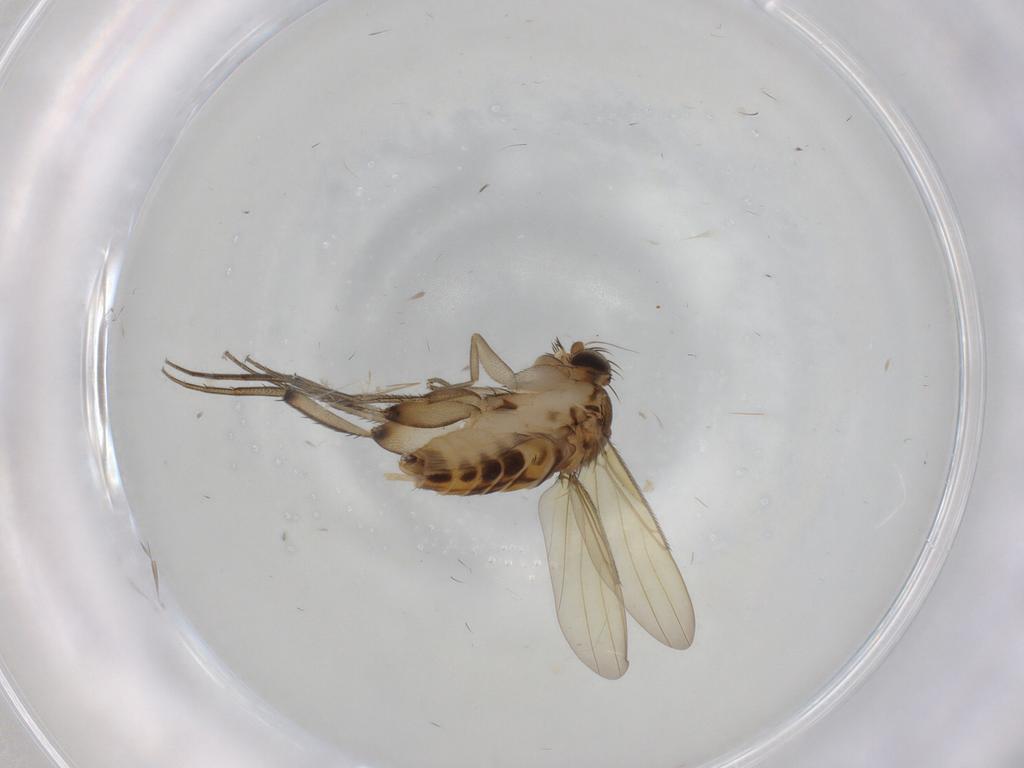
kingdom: Animalia
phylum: Arthropoda
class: Insecta
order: Diptera
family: Phoridae
